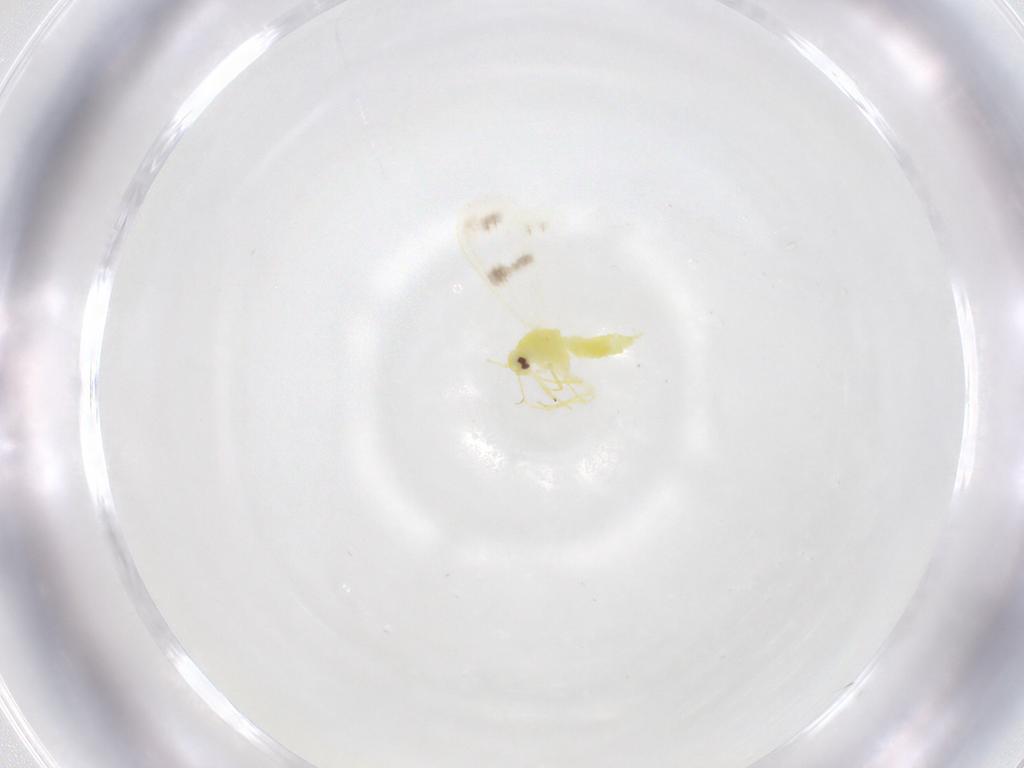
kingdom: Animalia
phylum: Arthropoda
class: Insecta
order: Hemiptera
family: Aleyrodidae
